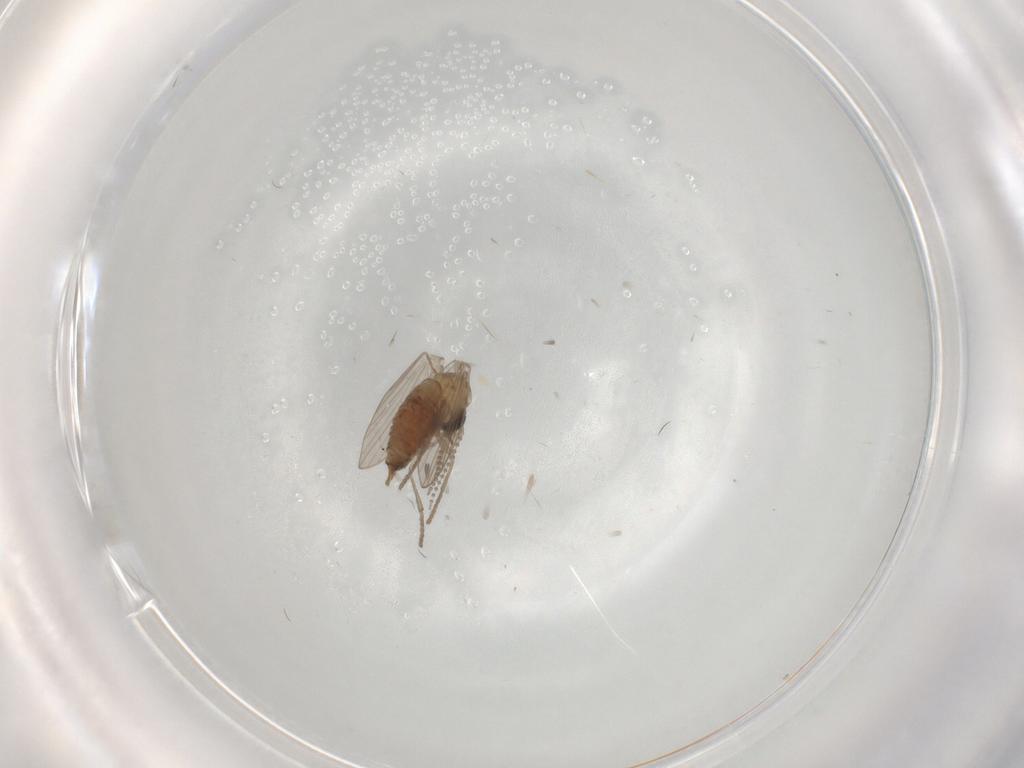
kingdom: Animalia
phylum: Arthropoda
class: Insecta
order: Diptera
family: Psychodidae
